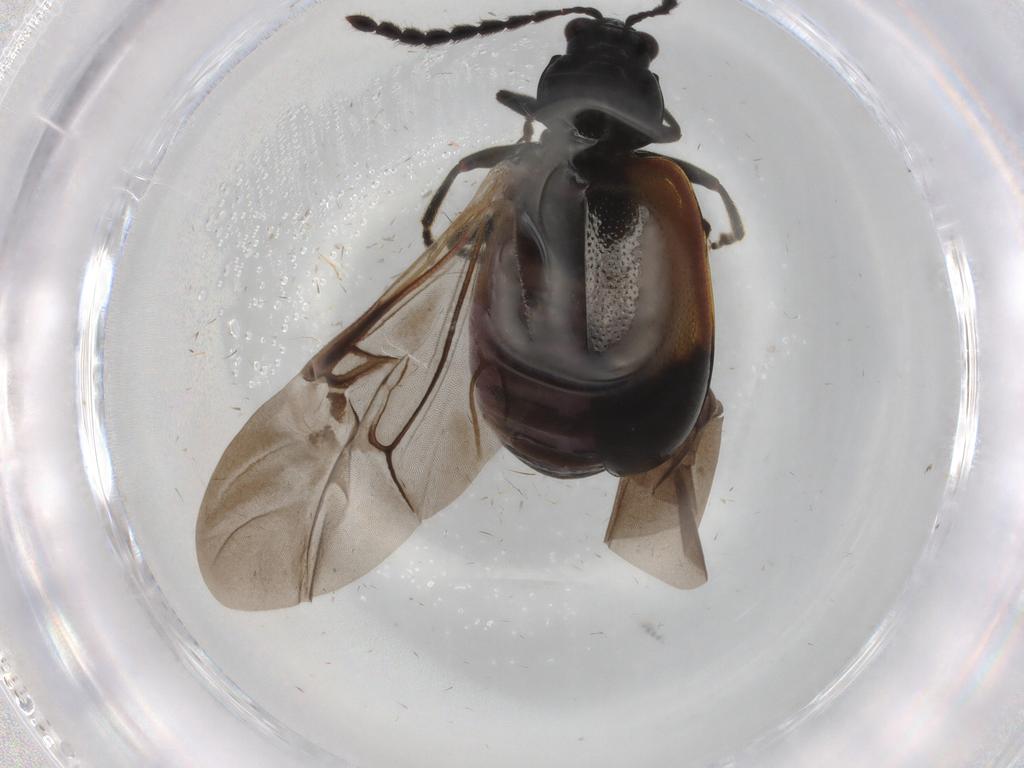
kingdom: Animalia
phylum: Arthropoda
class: Insecta
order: Coleoptera
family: Chrysomelidae
